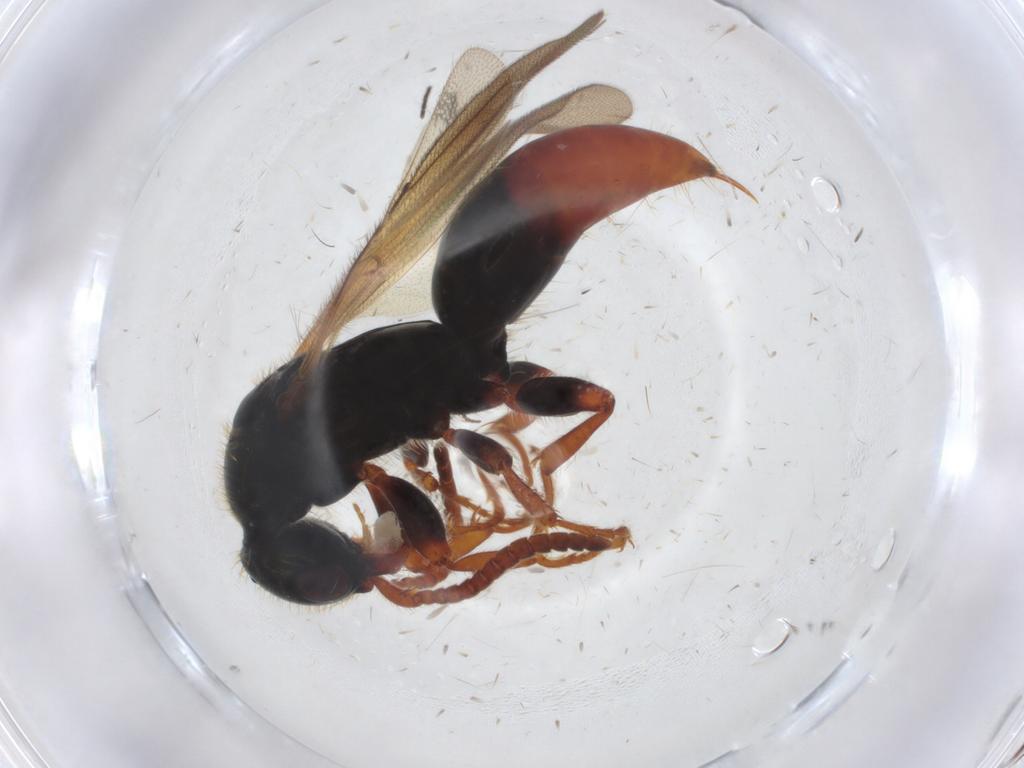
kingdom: Animalia
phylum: Arthropoda
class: Insecta
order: Hymenoptera
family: Bethylidae
